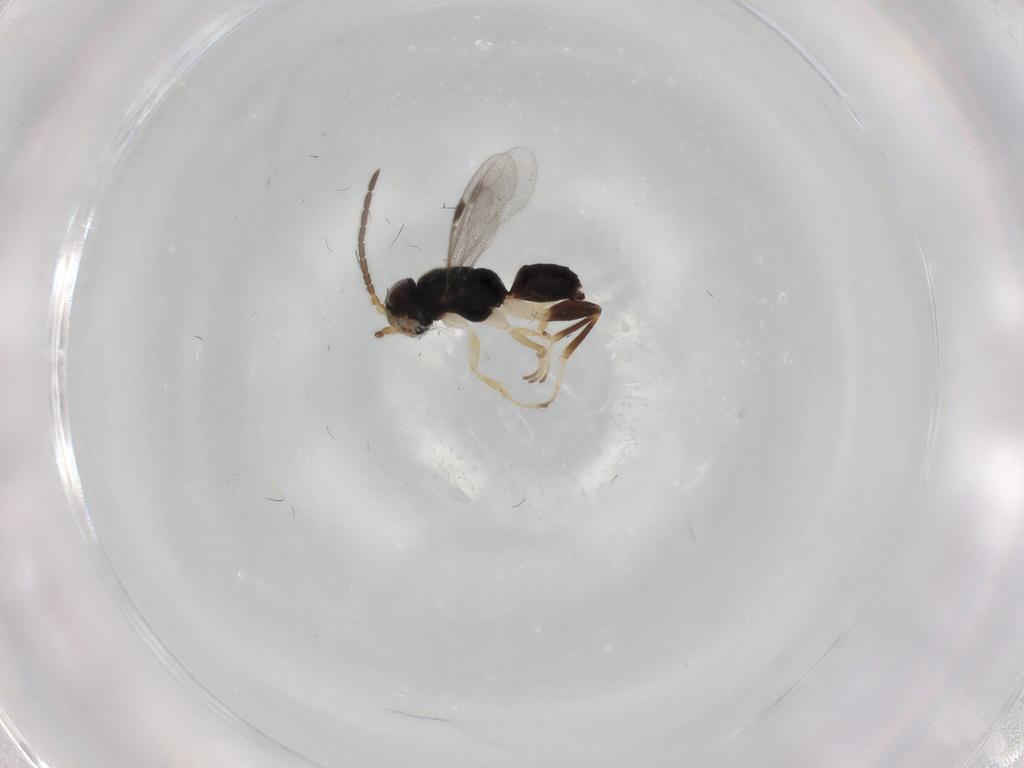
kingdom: Animalia
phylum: Arthropoda
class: Insecta
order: Hymenoptera
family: Dryinidae
